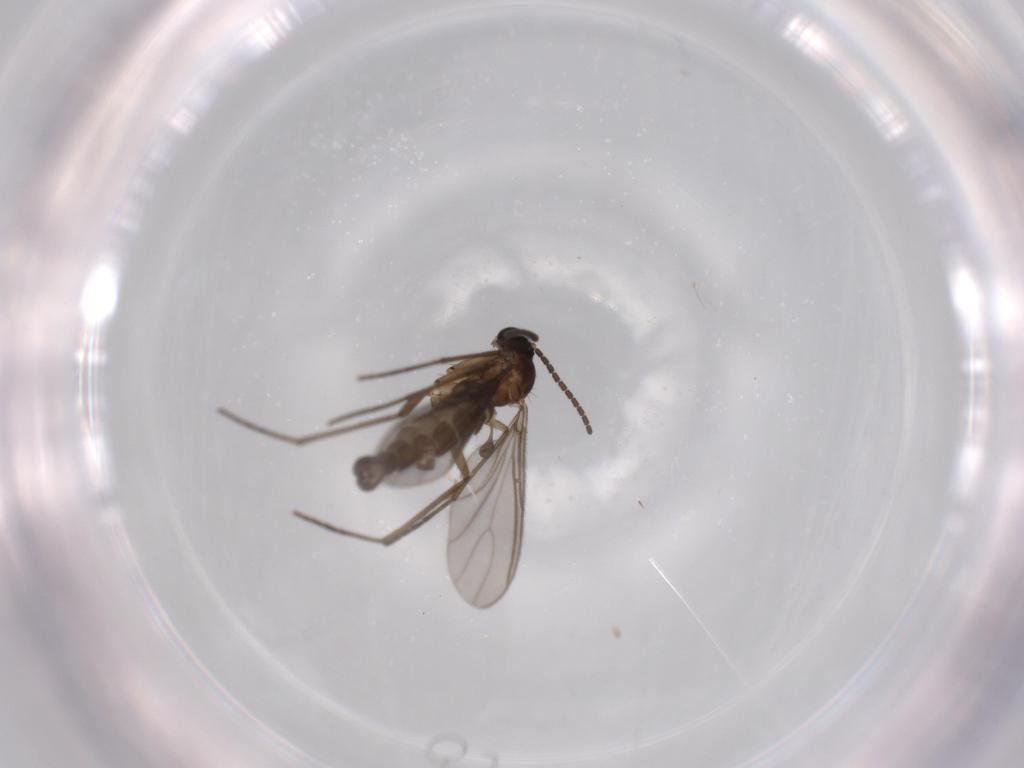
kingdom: Animalia
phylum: Arthropoda
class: Insecta
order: Diptera
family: Sciaridae
